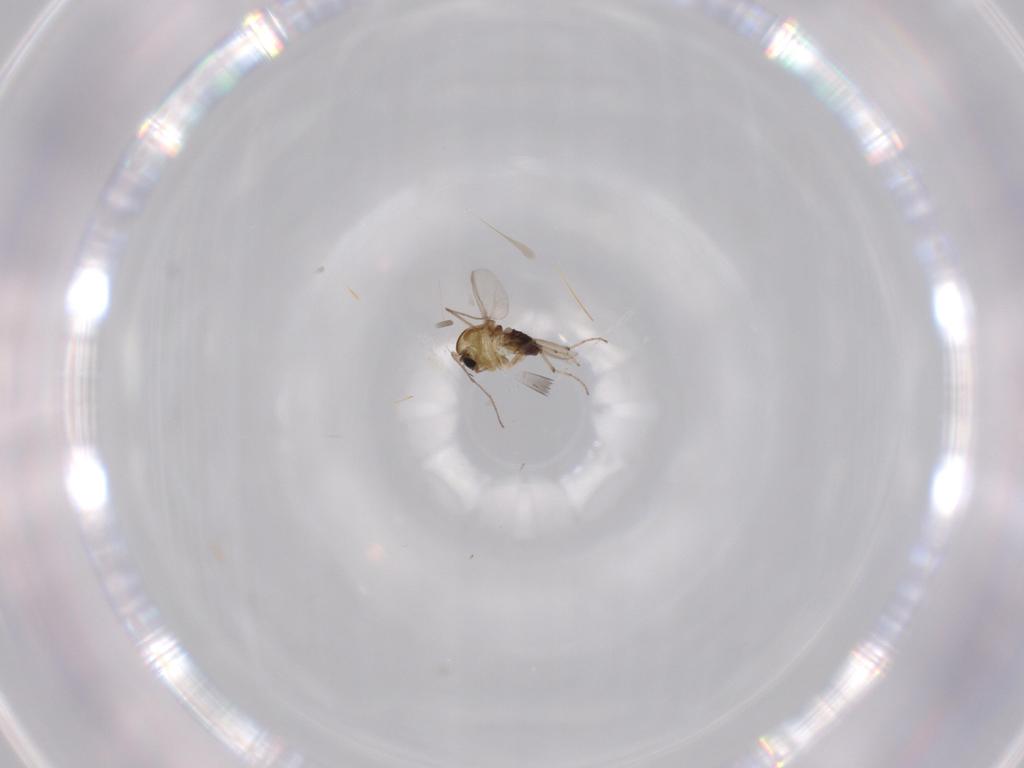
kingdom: Animalia
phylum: Arthropoda
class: Insecta
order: Diptera
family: Chironomidae
